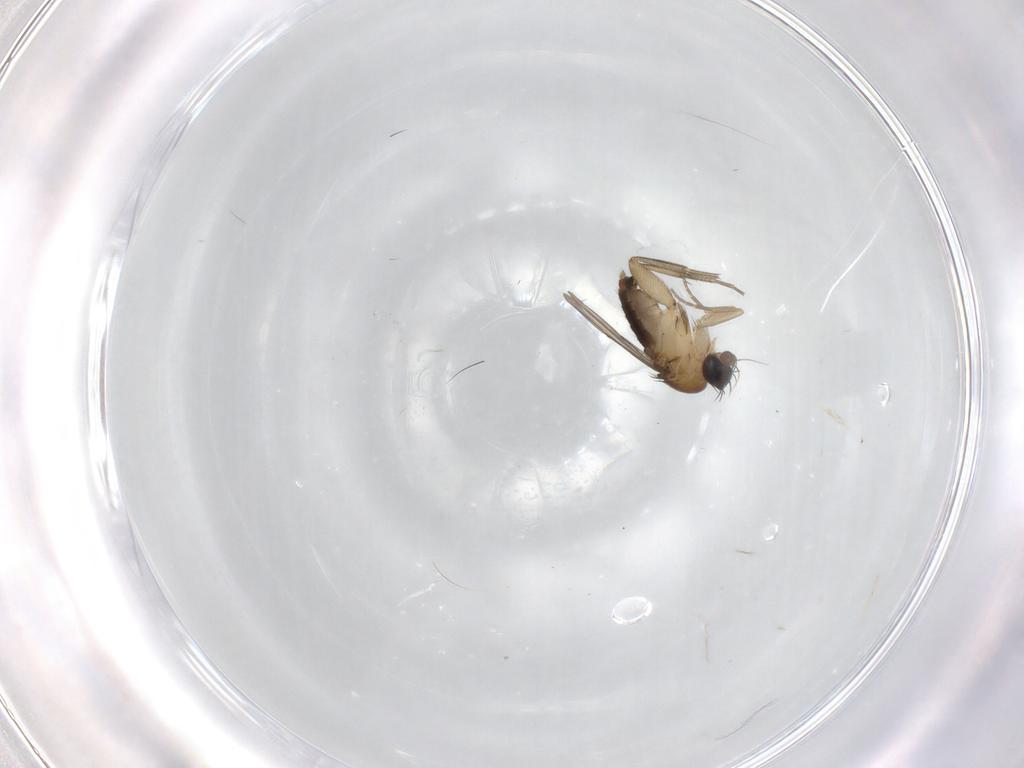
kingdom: Animalia
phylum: Arthropoda
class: Insecta
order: Diptera
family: Phoridae
